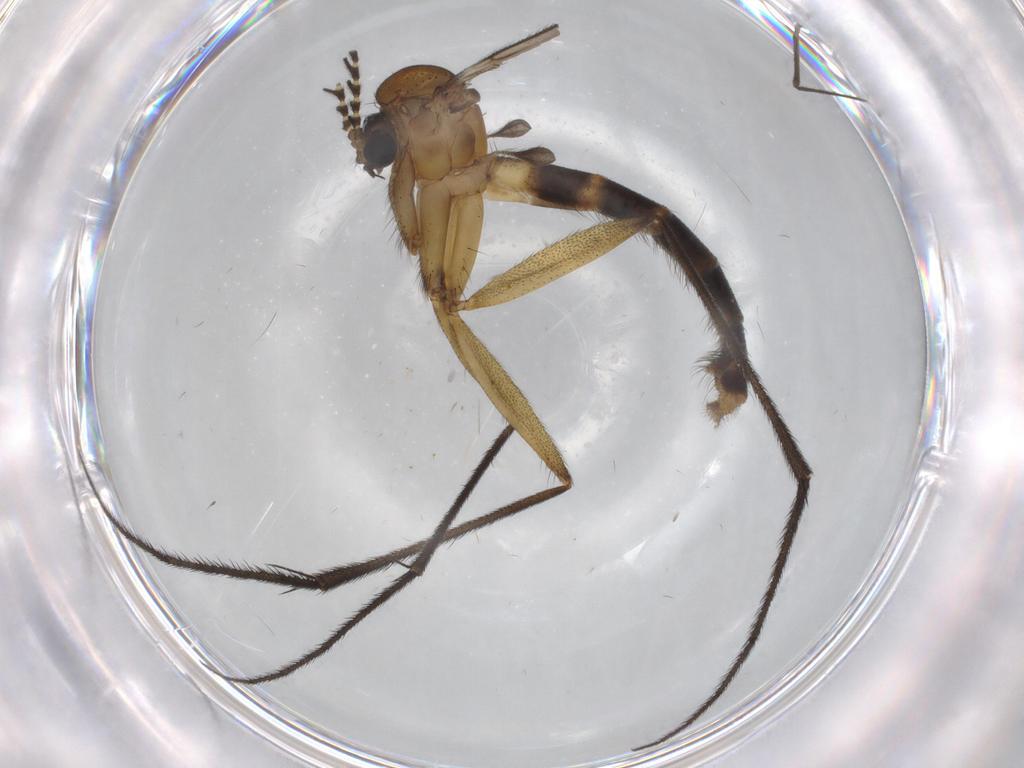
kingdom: Animalia
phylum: Arthropoda
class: Insecta
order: Diptera
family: Ditomyiidae
